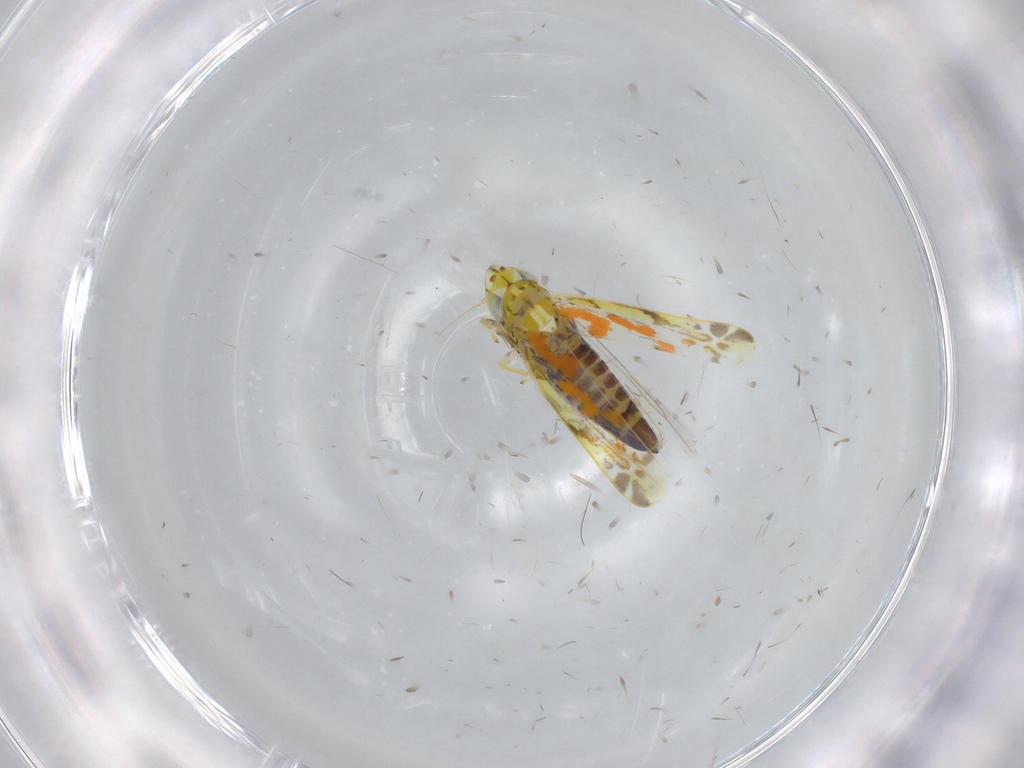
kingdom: Animalia
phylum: Arthropoda
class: Insecta
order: Hemiptera
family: Cicadellidae
